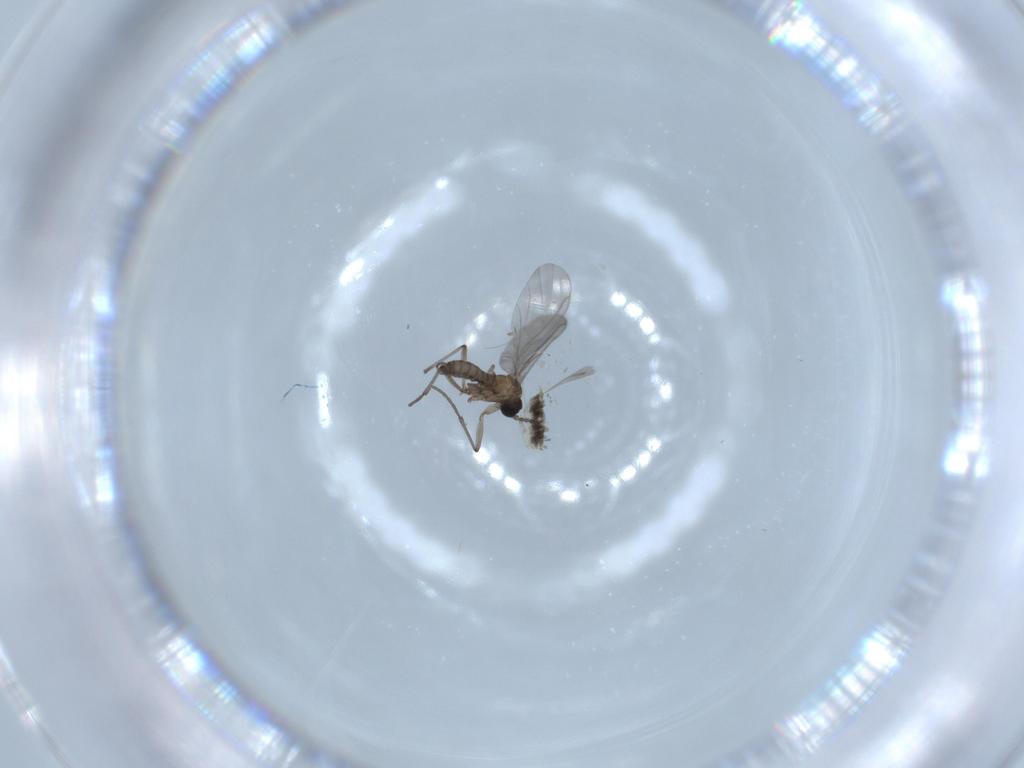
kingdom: Animalia
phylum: Arthropoda
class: Insecta
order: Diptera
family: Sciaridae
